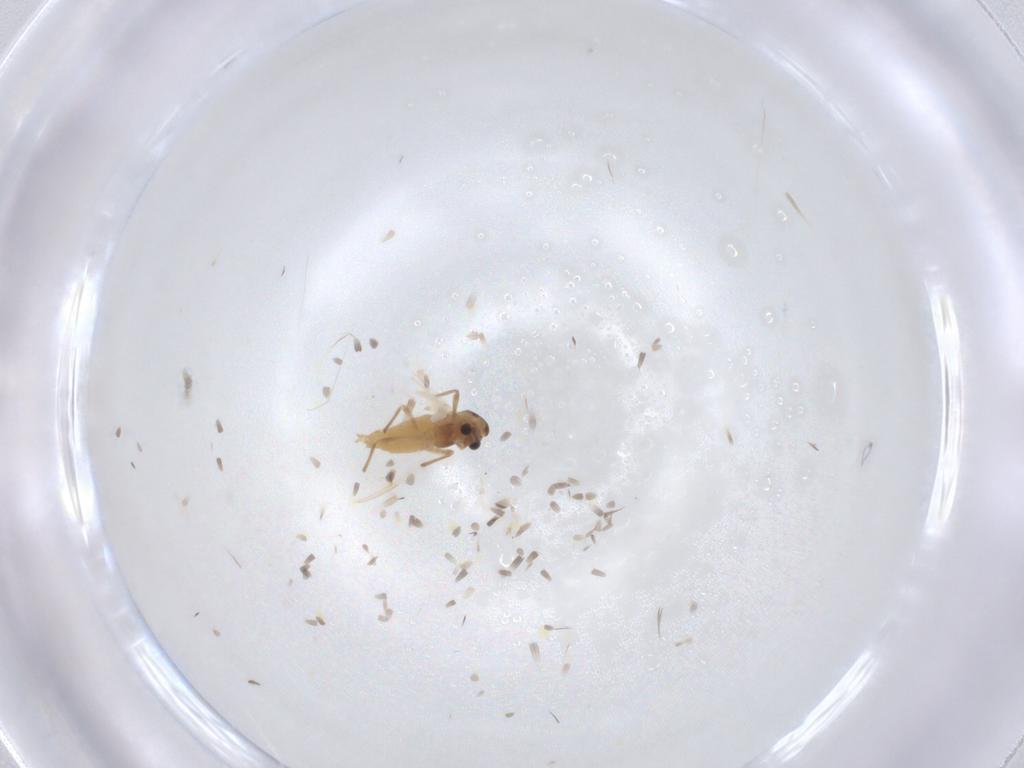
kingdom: Animalia
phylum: Arthropoda
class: Insecta
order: Diptera
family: Chironomidae
